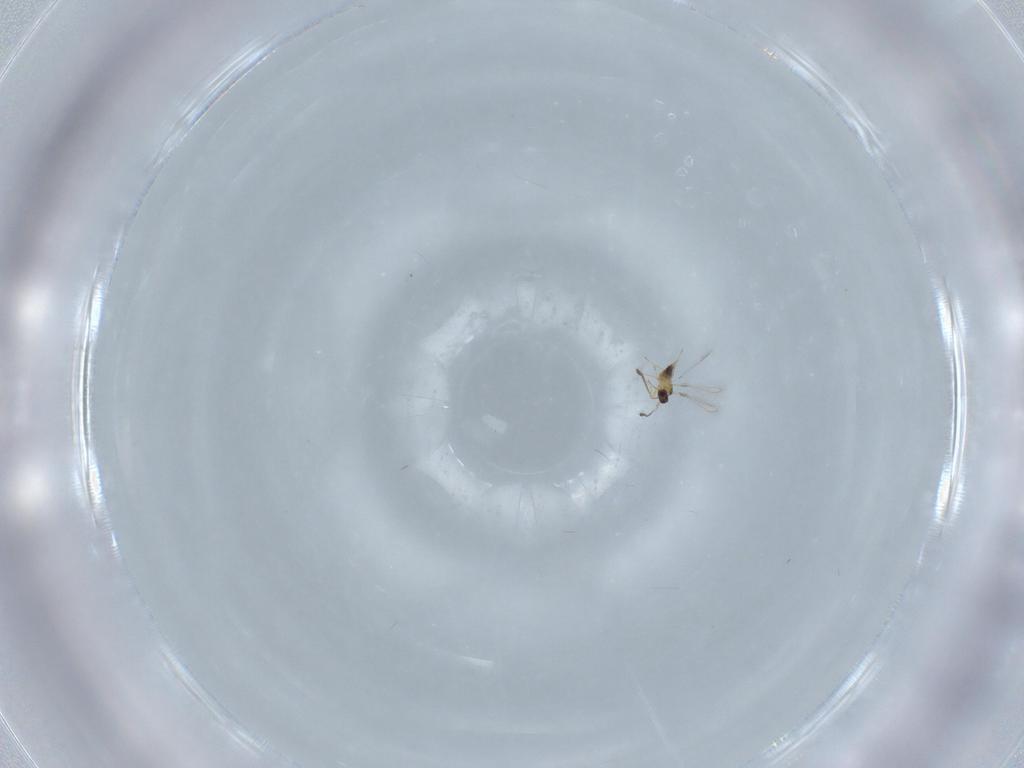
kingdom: Animalia
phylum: Arthropoda
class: Insecta
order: Hymenoptera
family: Mymaridae
